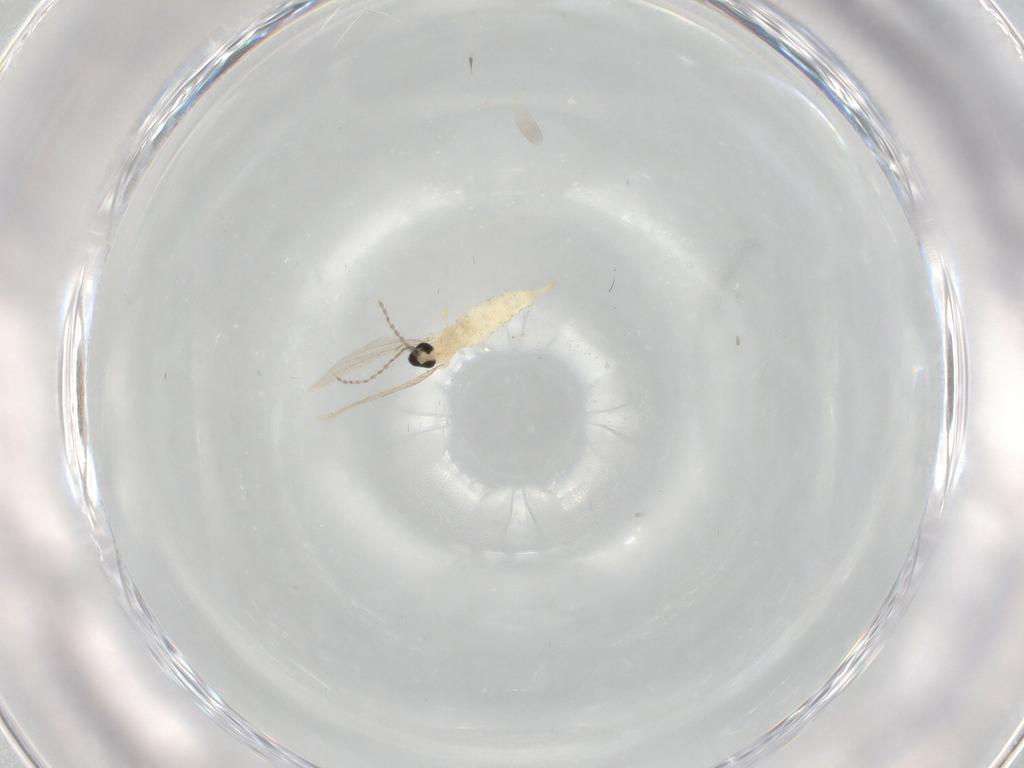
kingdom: Animalia
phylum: Arthropoda
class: Insecta
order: Diptera
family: Cecidomyiidae
